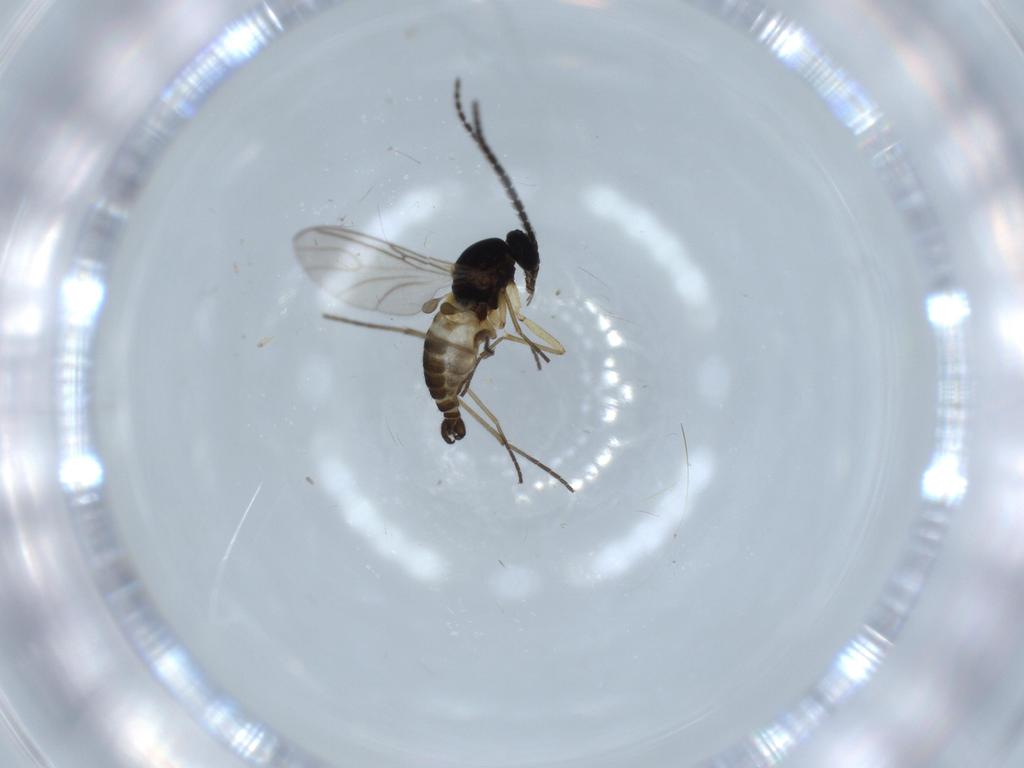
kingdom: Animalia
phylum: Arthropoda
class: Insecta
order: Diptera
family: Sciaridae
